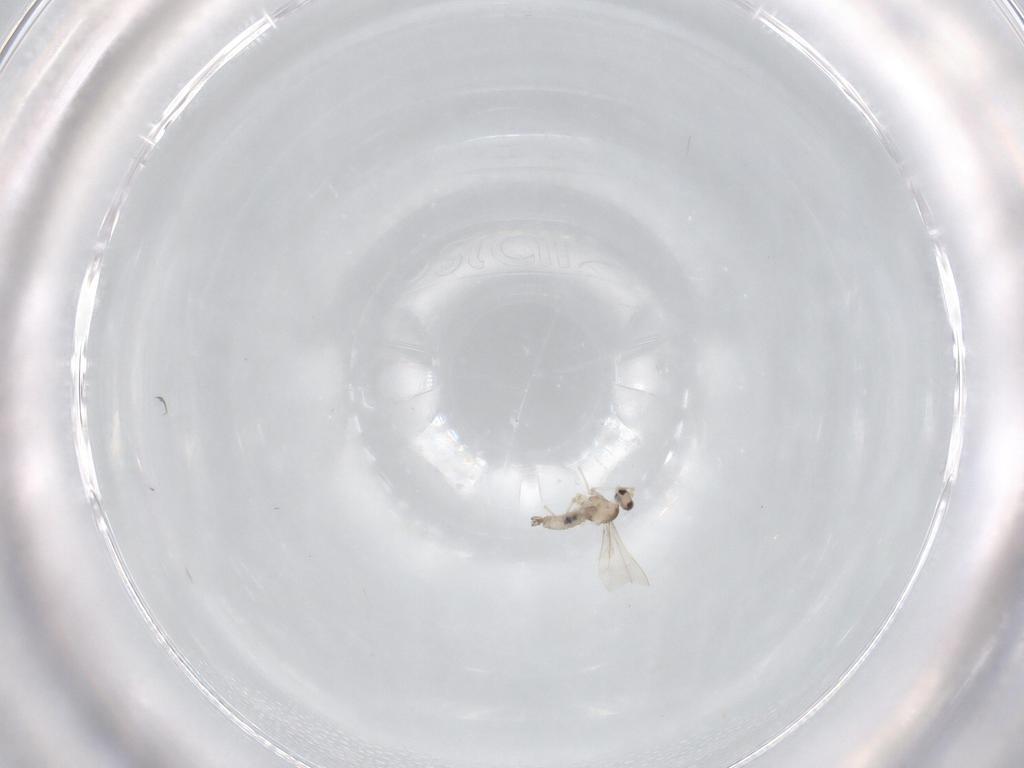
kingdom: Animalia
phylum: Arthropoda
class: Insecta
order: Diptera
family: Cecidomyiidae
